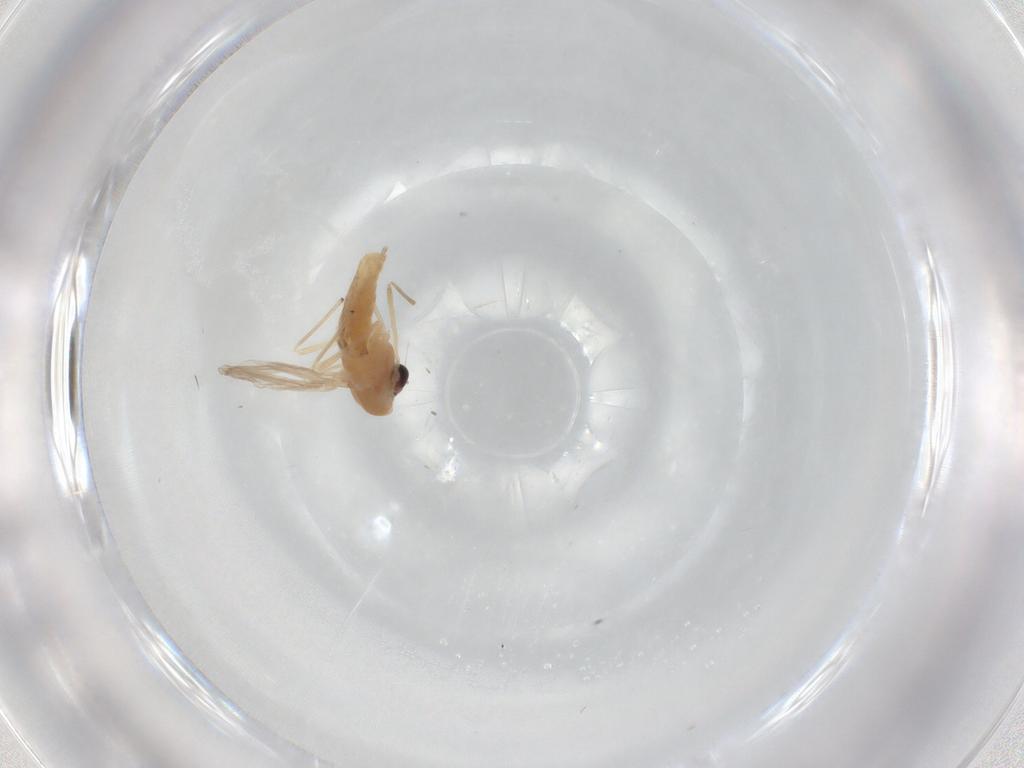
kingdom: Animalia
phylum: Arthropoda
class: Insecta
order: Diptera
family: Chironomidae
